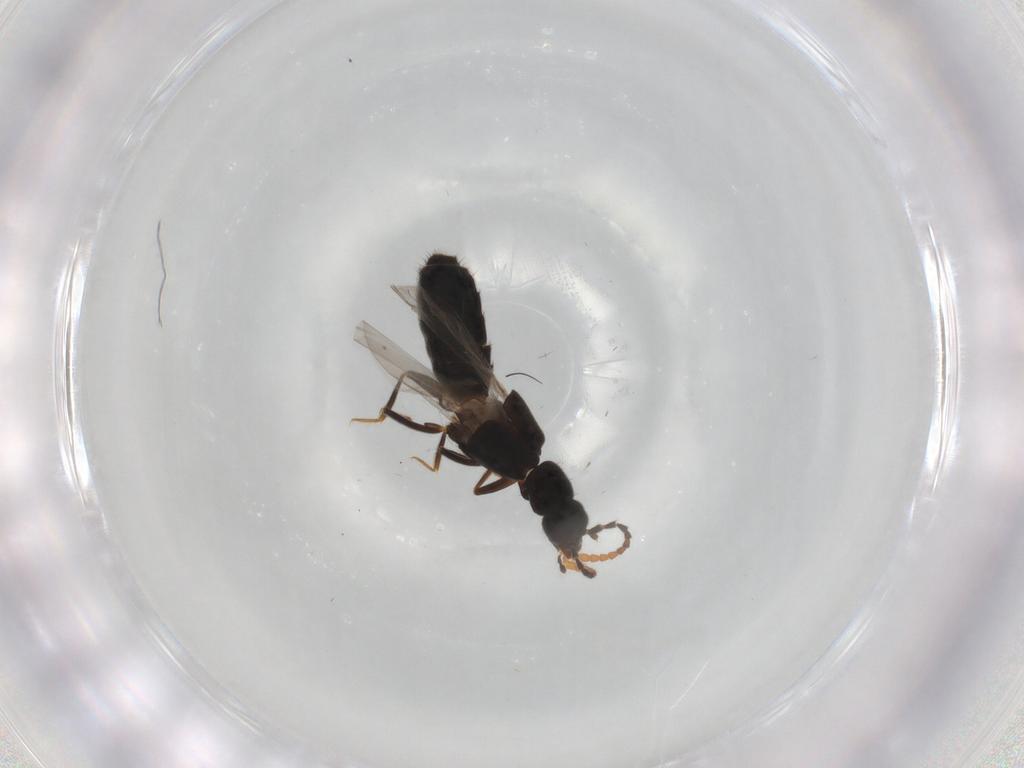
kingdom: Animalia
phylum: Arthropoda
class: Insecta
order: Coleoptera
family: Staphylinidae
